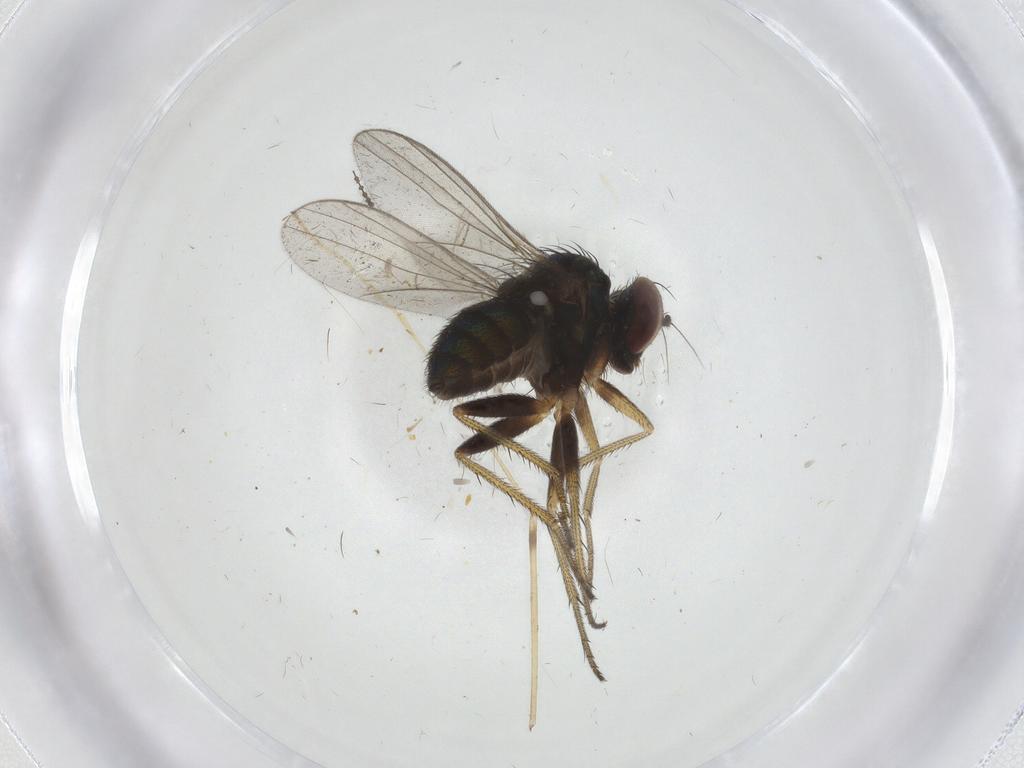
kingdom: Animalia
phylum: Arthropoda
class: Insecta
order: Diptera
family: Limoniidae
